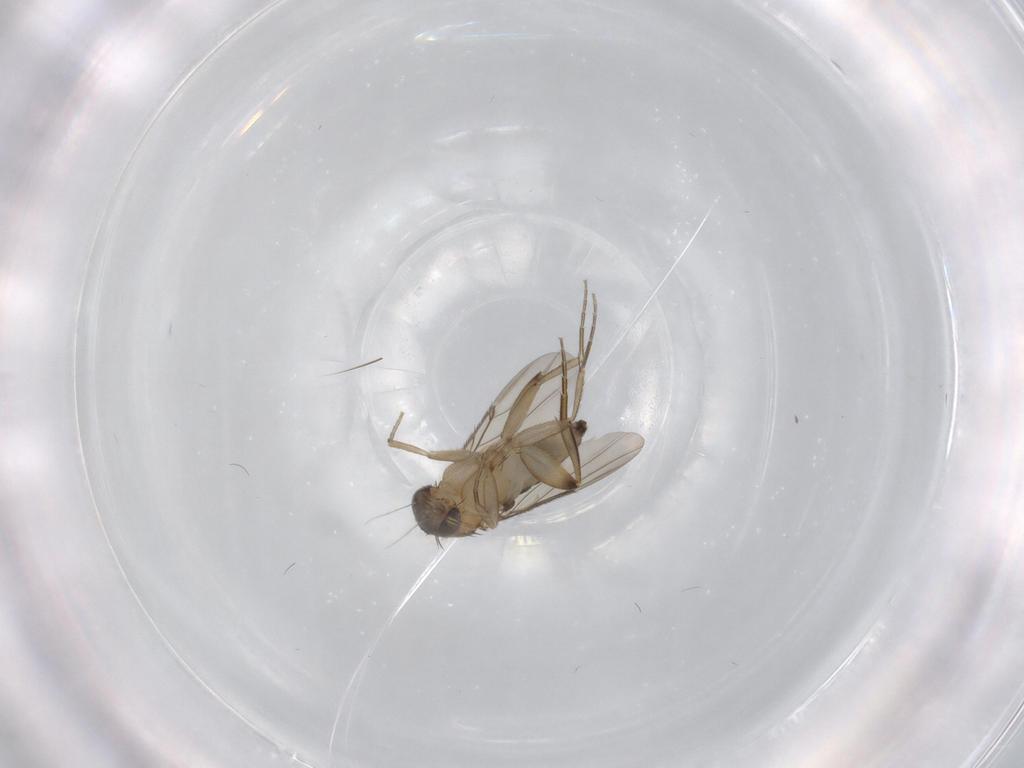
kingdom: Animalia
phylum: Arthropoda
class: Insecta
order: Diptera
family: Phoridae
